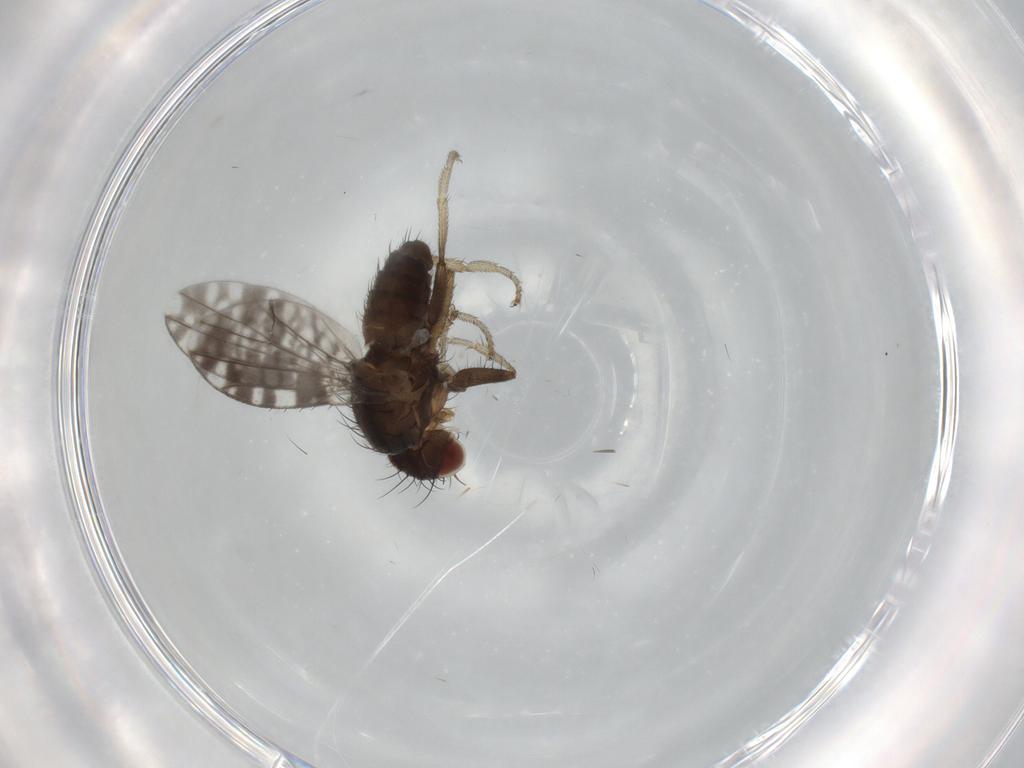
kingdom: Animalia
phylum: Arthropoda
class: Insecta
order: Diptera
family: Tephritidae
